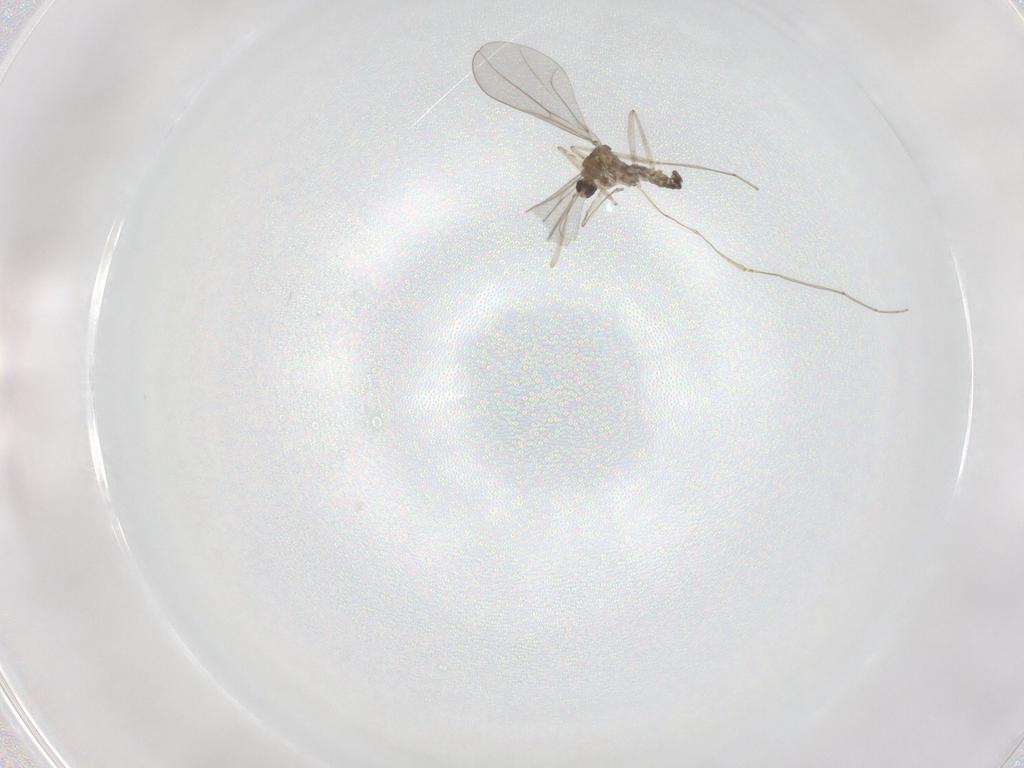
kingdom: Animalia
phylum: Arthropoda
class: Insecta
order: Diptera
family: Cecidomyiidae
